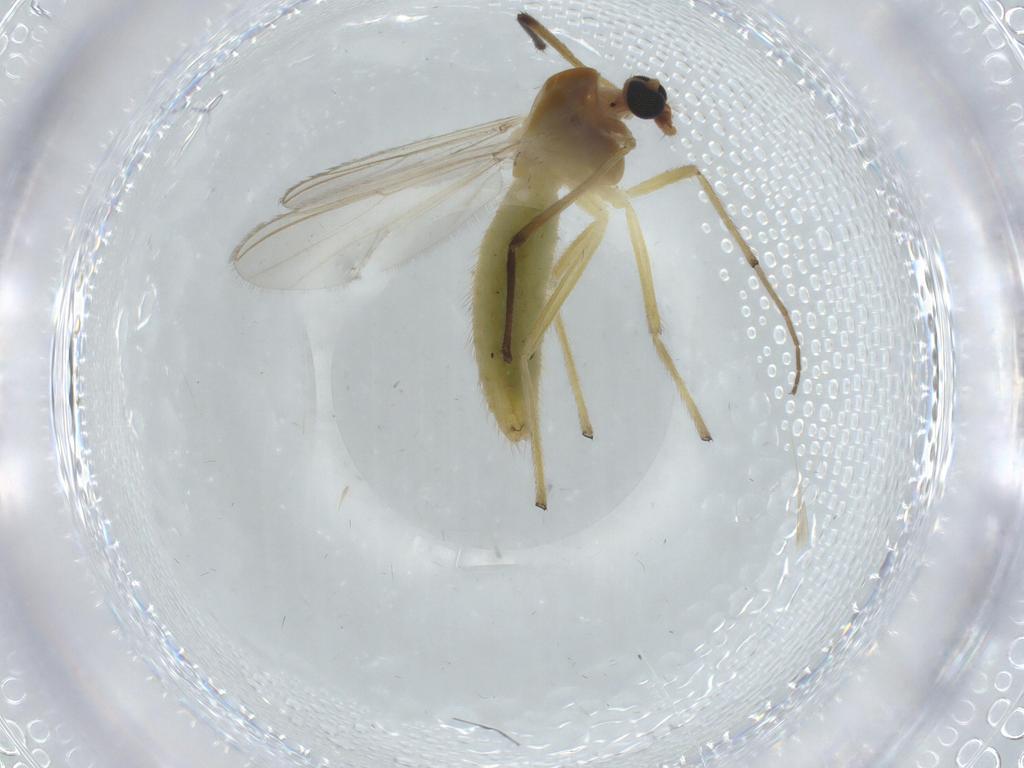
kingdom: Animalia
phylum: Arthropoda
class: Insecta
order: Diptera
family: Chironomidae
